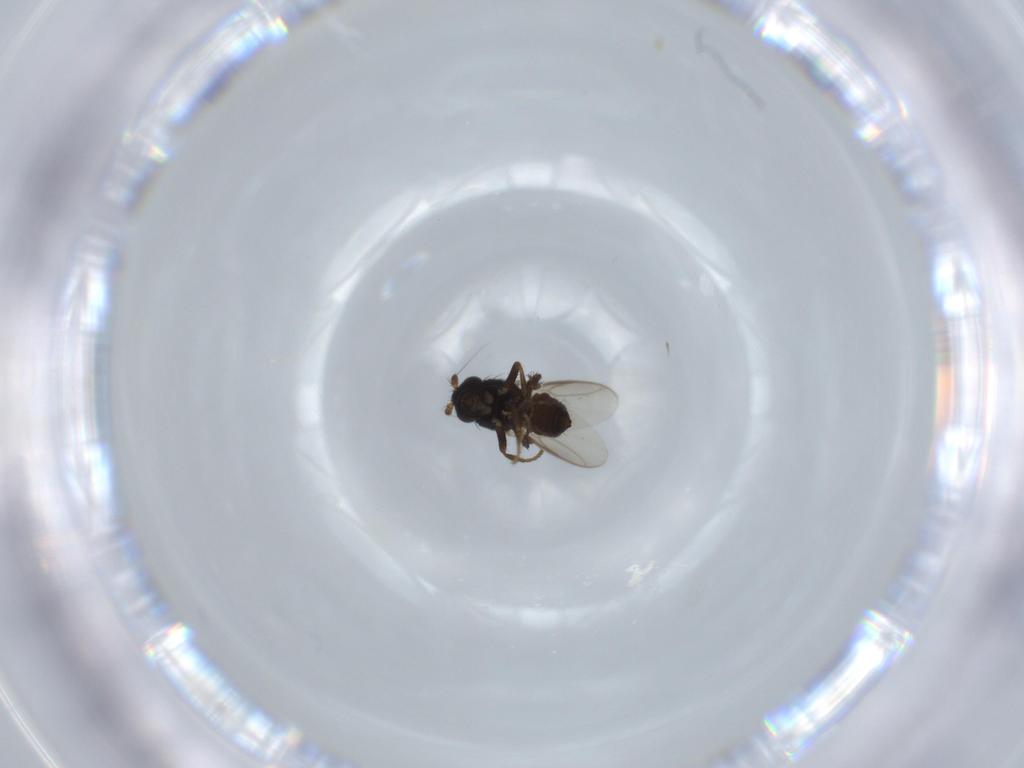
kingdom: Animalia
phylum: Arthropoda
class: Insecta
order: Diptera
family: Sphaeroceridae
